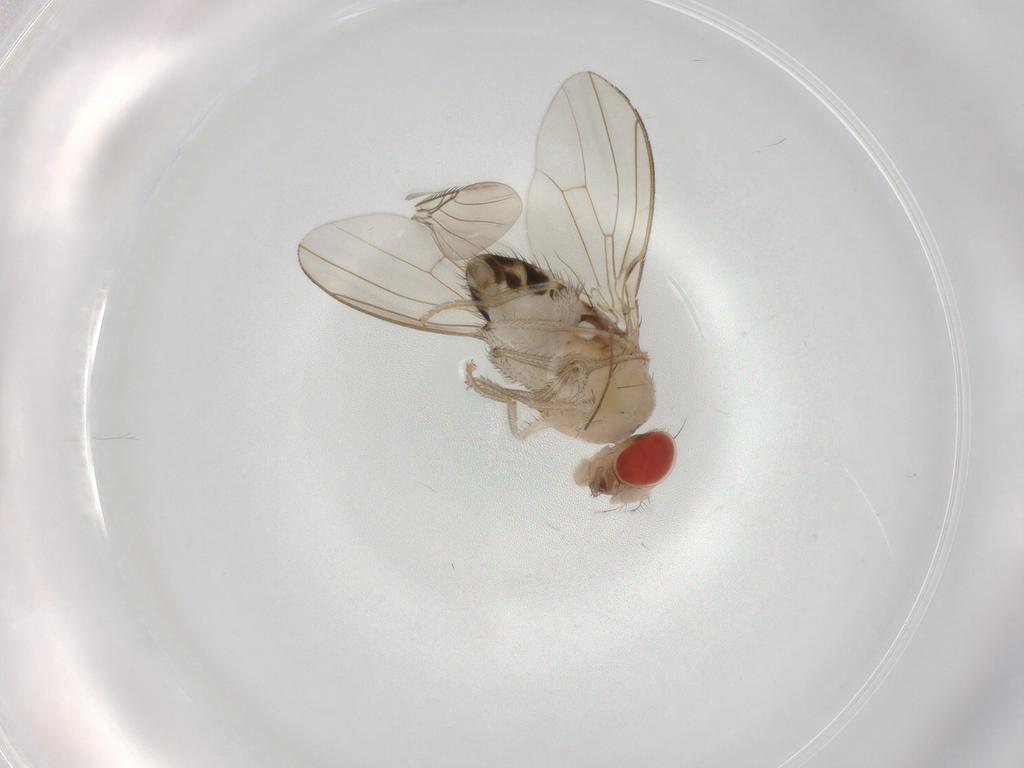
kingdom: Animalia
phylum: Arthropoda
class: Insecta
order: Diptera
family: Drosophilidae
